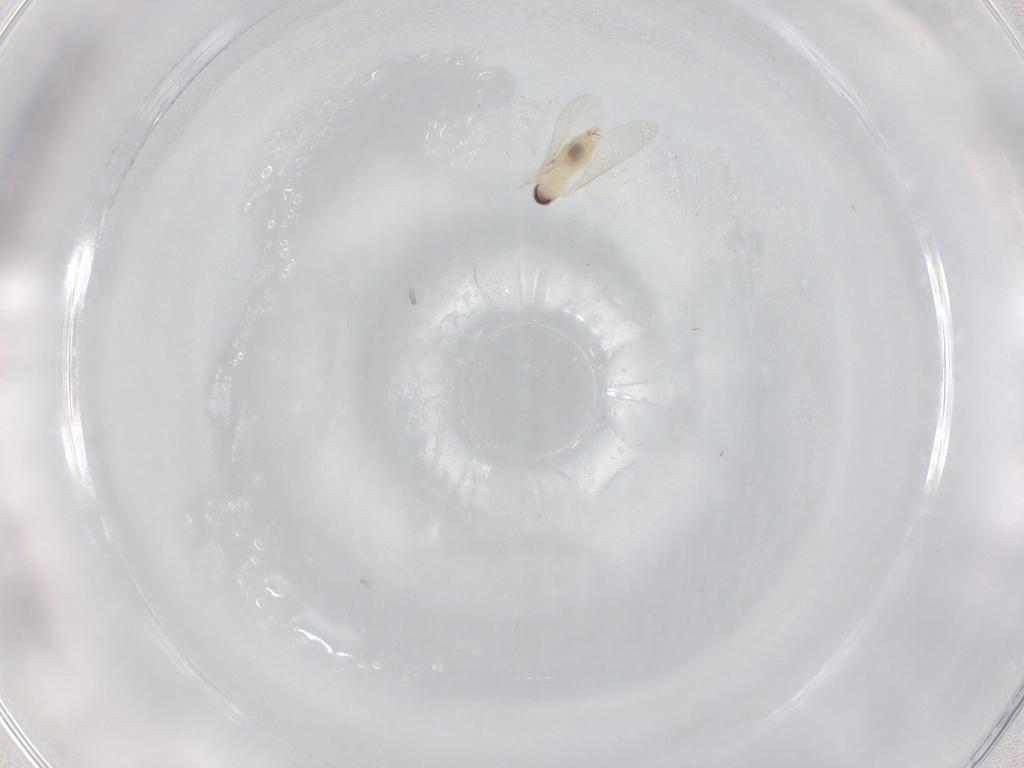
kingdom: Animalia
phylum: Arthropoda
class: Insecta
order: Diptera
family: Cecidomyiidae
